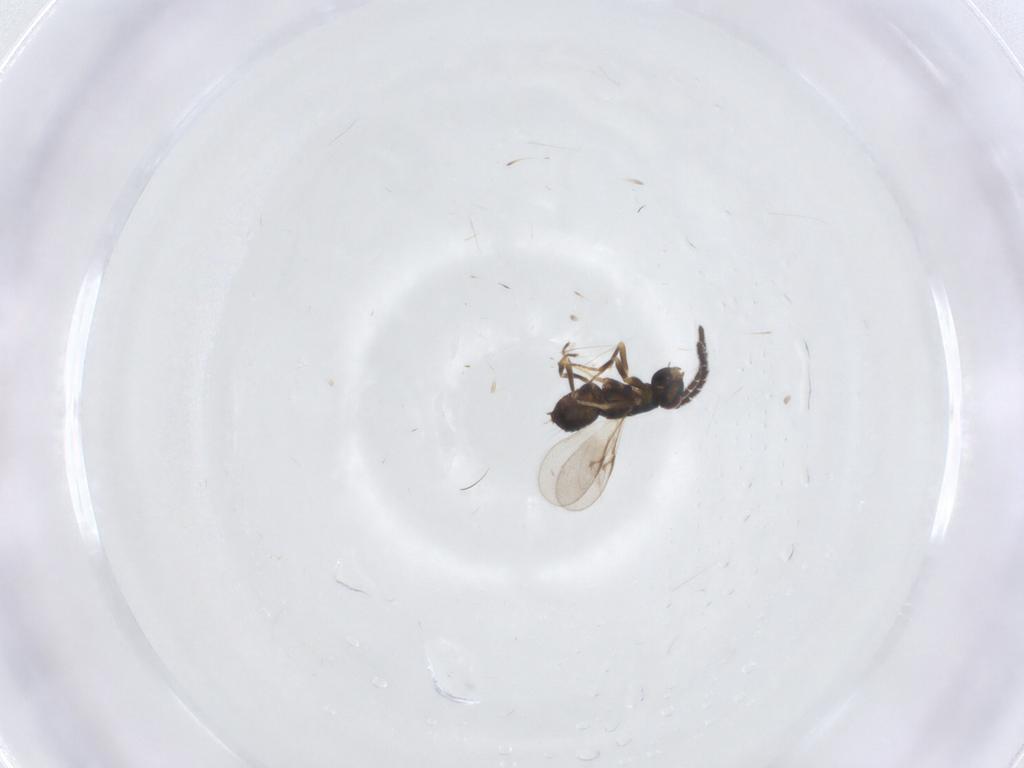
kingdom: Animalia
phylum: Arthropoda
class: Insecta
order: Hymenoptera
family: Encyrtidae
